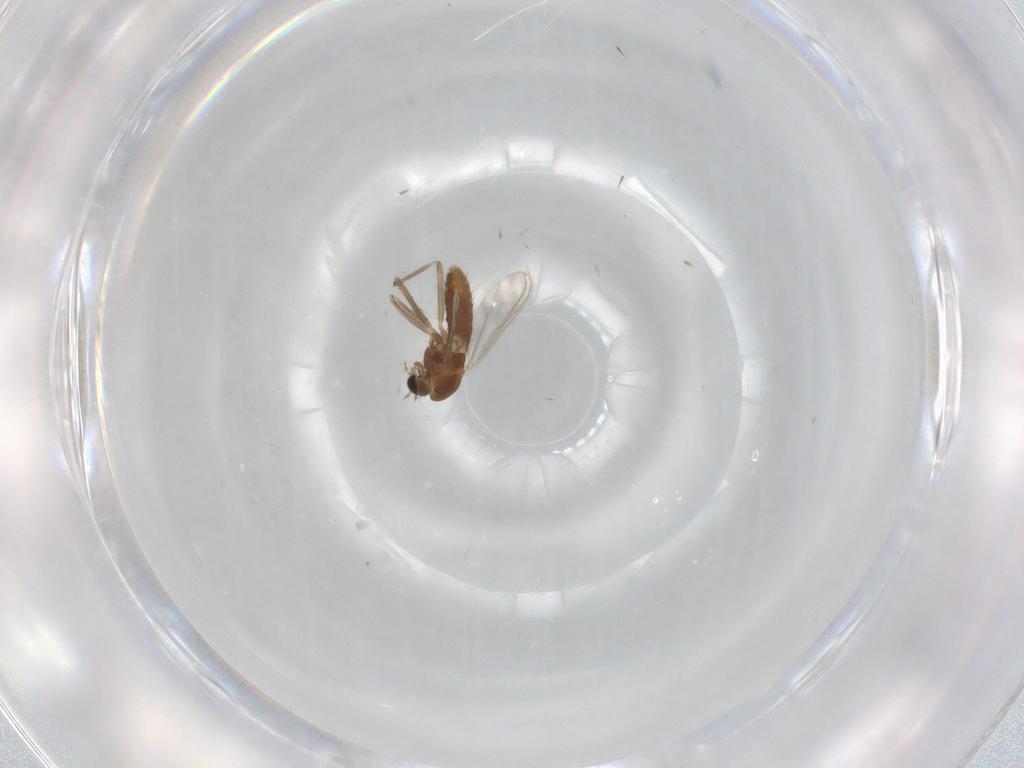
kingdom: Animalia
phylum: Arthropoda
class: Insecta
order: Diptera
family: Chironomidae
